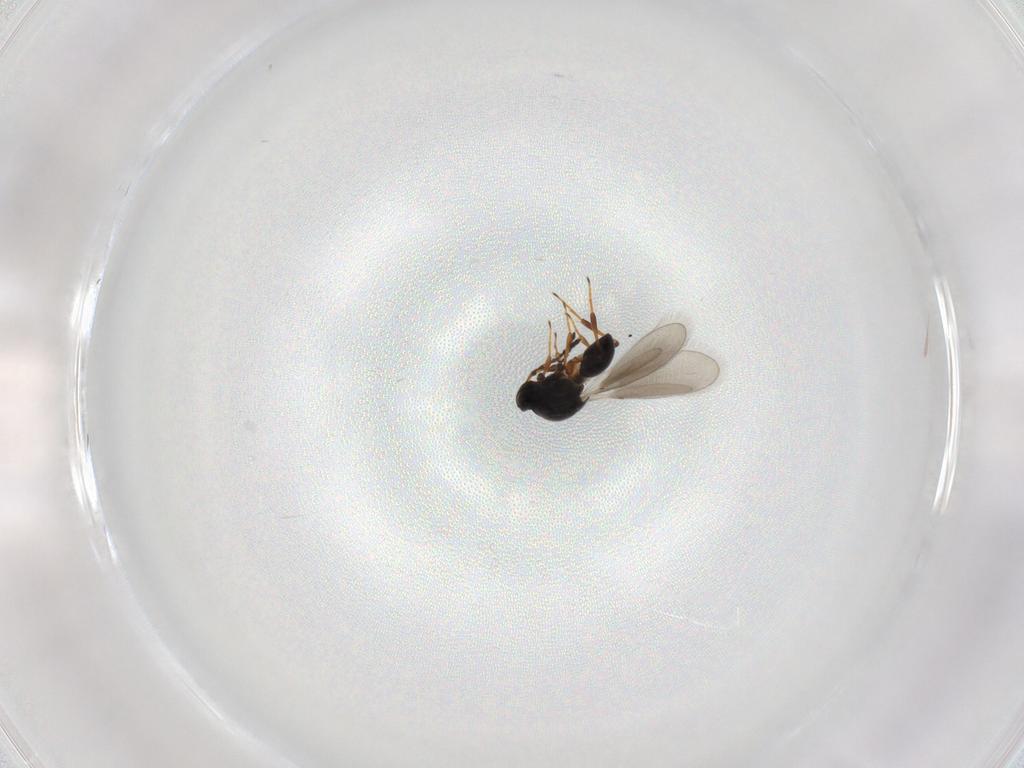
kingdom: Animalia
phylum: Arthropoda
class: Insecta
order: Hymenoptera
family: Platygastridae
